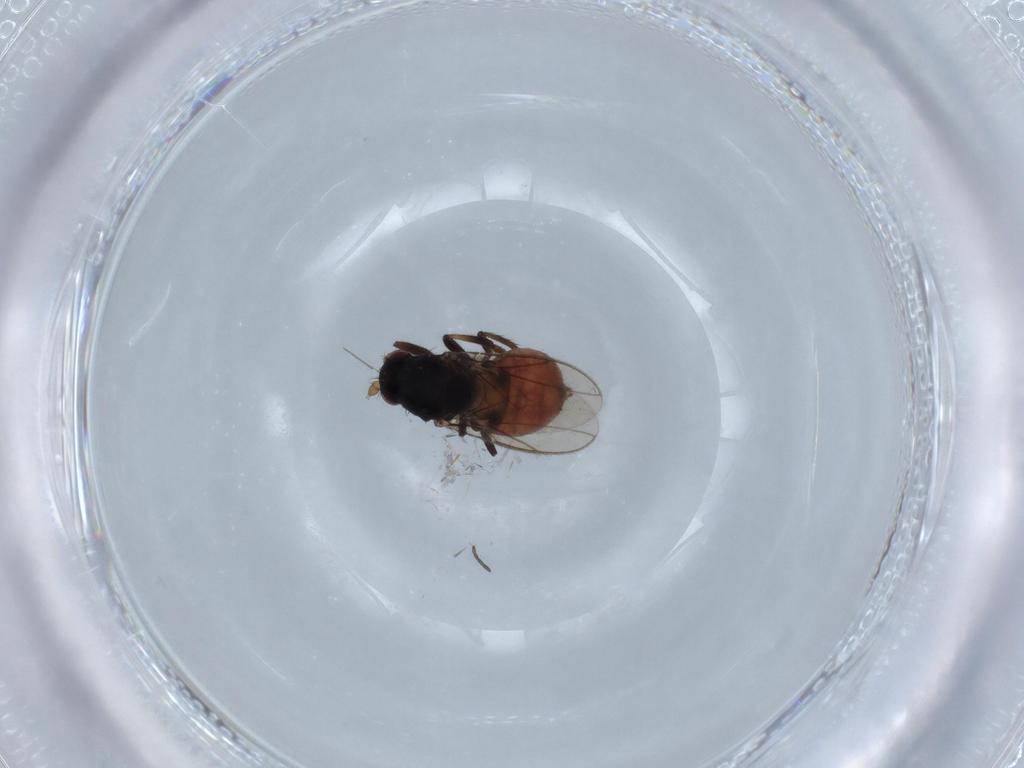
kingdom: Animalia
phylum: Arthropoda
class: Insecta
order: Diptera
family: Sphaeroceridae
